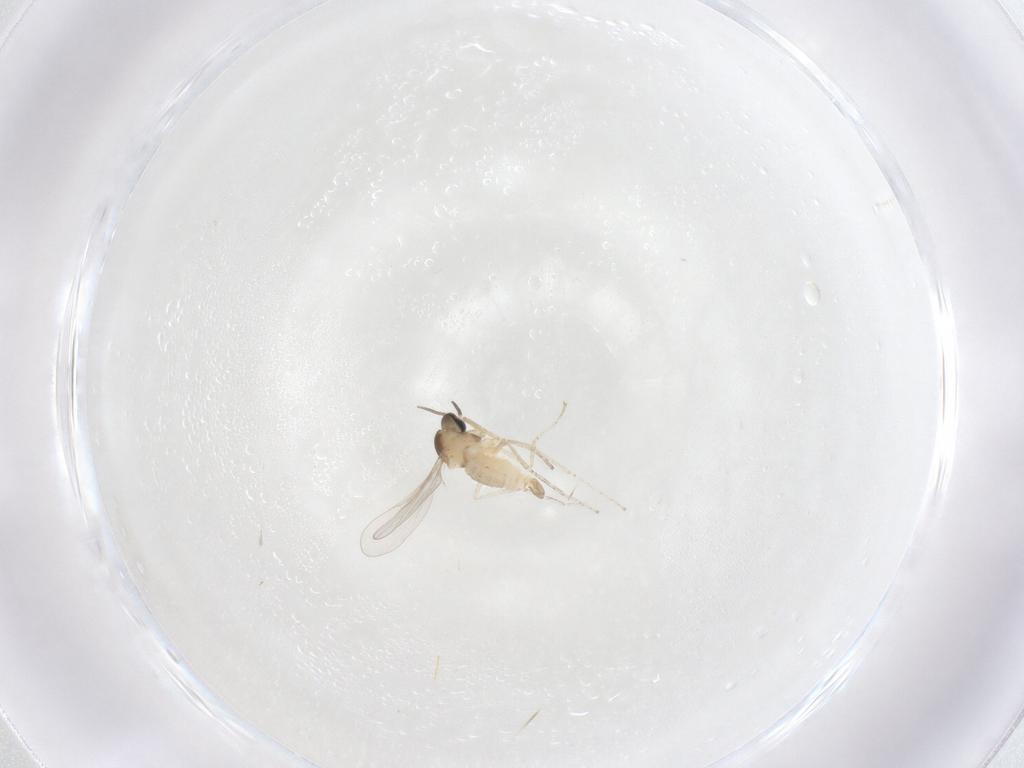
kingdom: Animalia
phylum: Arthropoda
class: Insecta
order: Diptera
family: Cecidomyiidae
